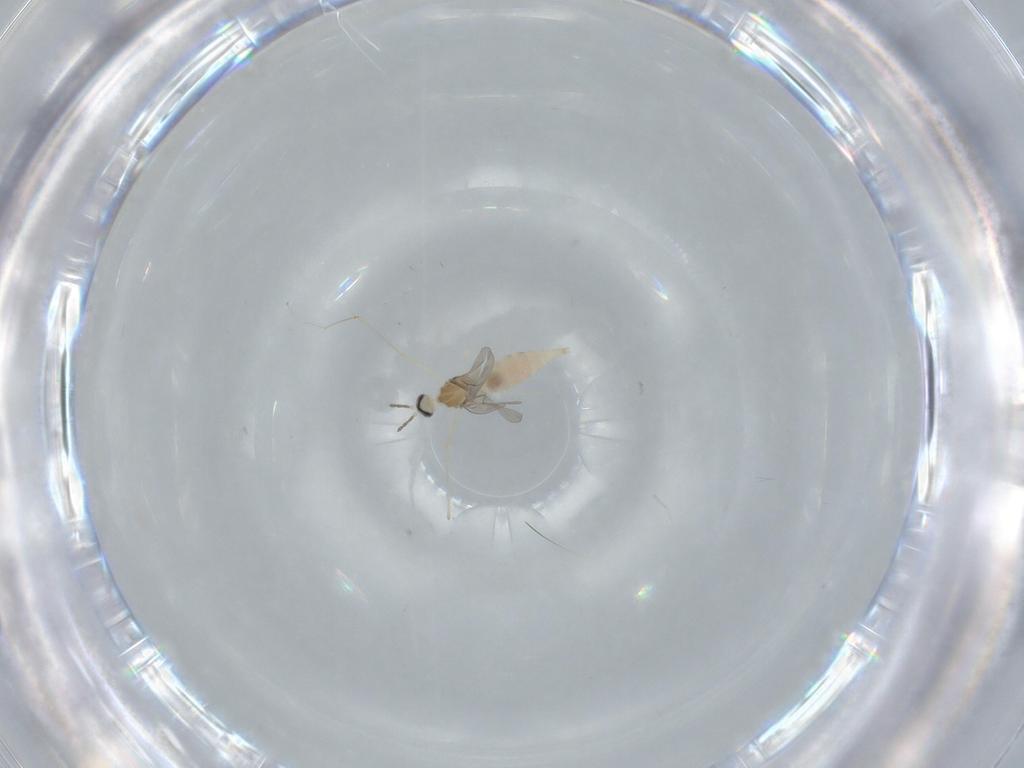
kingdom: Animalia
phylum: Arthropoda
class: Insecta
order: Diptera
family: Cecidomyiidae
